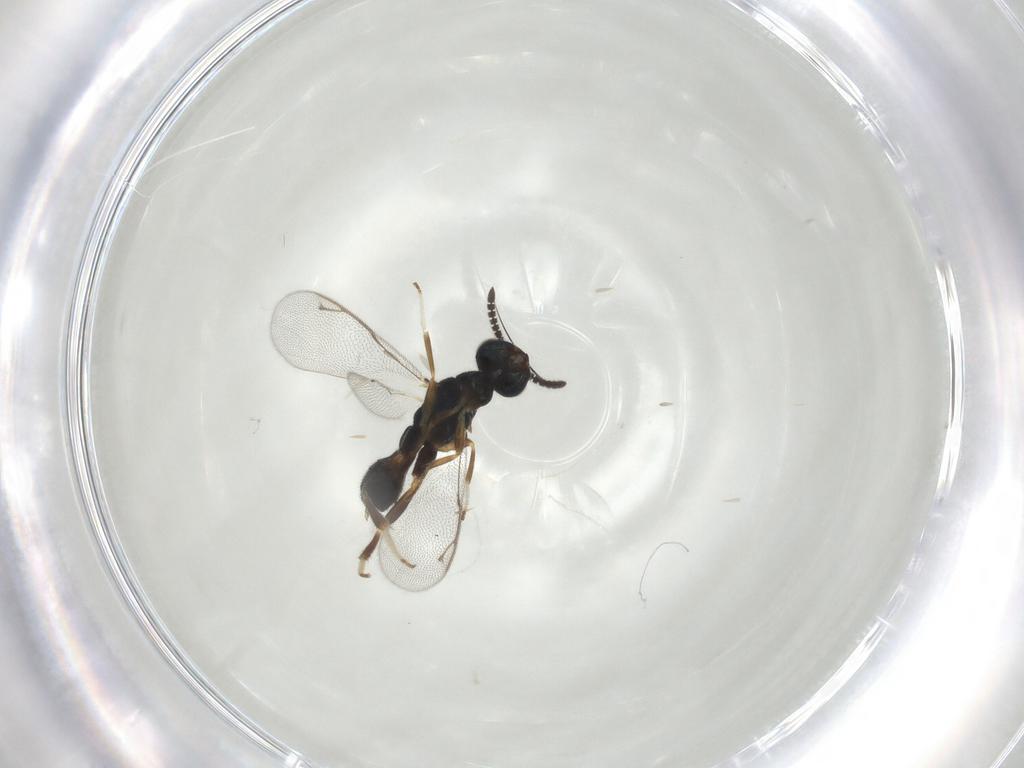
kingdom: Animalia
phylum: Arthropoda
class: Insecta
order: Hymenoptera
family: Cleonyminae
